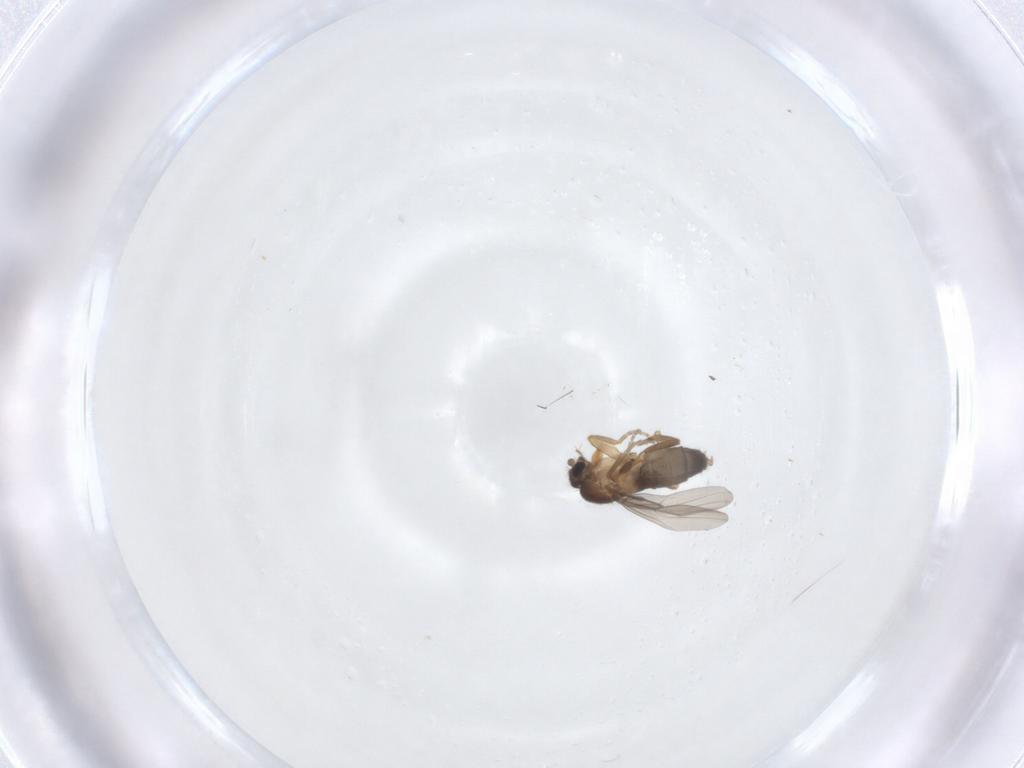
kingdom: Animalia
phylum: Arthropoda
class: Insecta
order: Diptera
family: Phoridae
